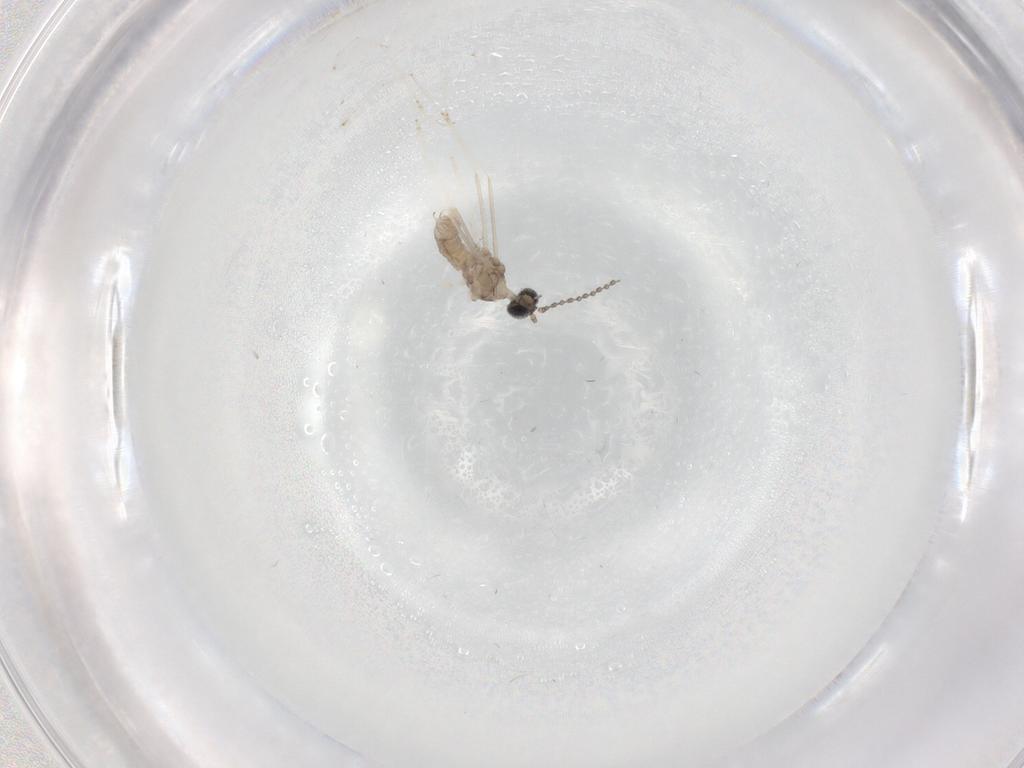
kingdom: Animalia
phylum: Arthropoda
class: Insecta
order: Diptera
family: Cecidomyiidae
